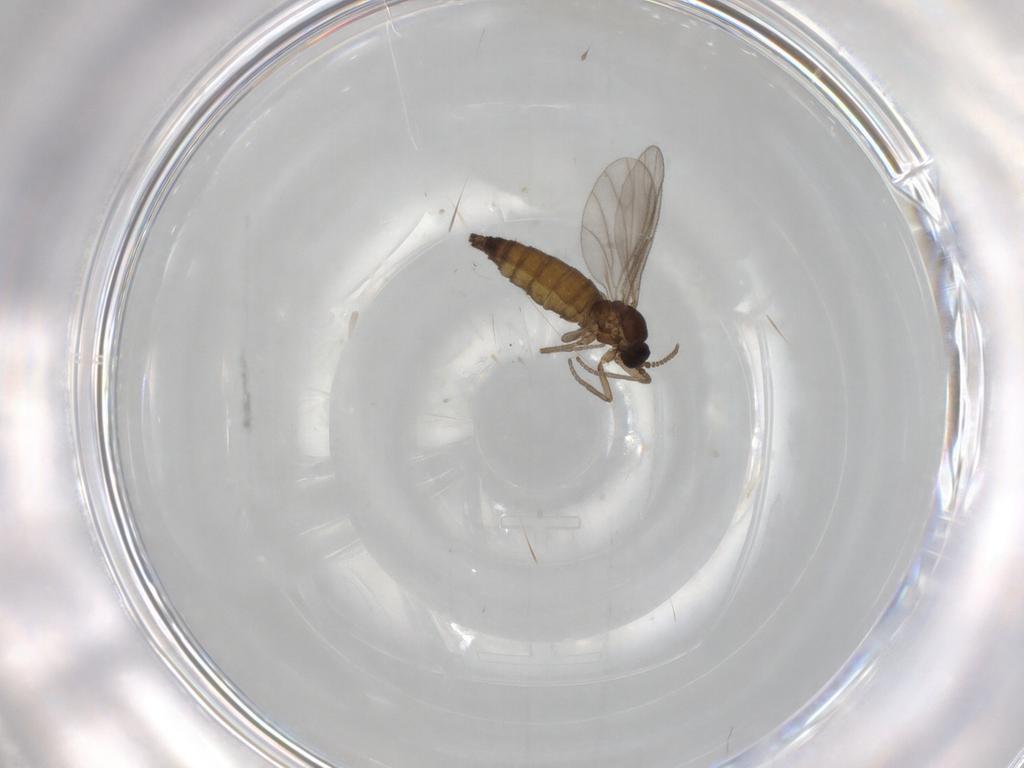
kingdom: Animalia
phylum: Arthropoda
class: Insecta
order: Diptera
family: Sciaridae
